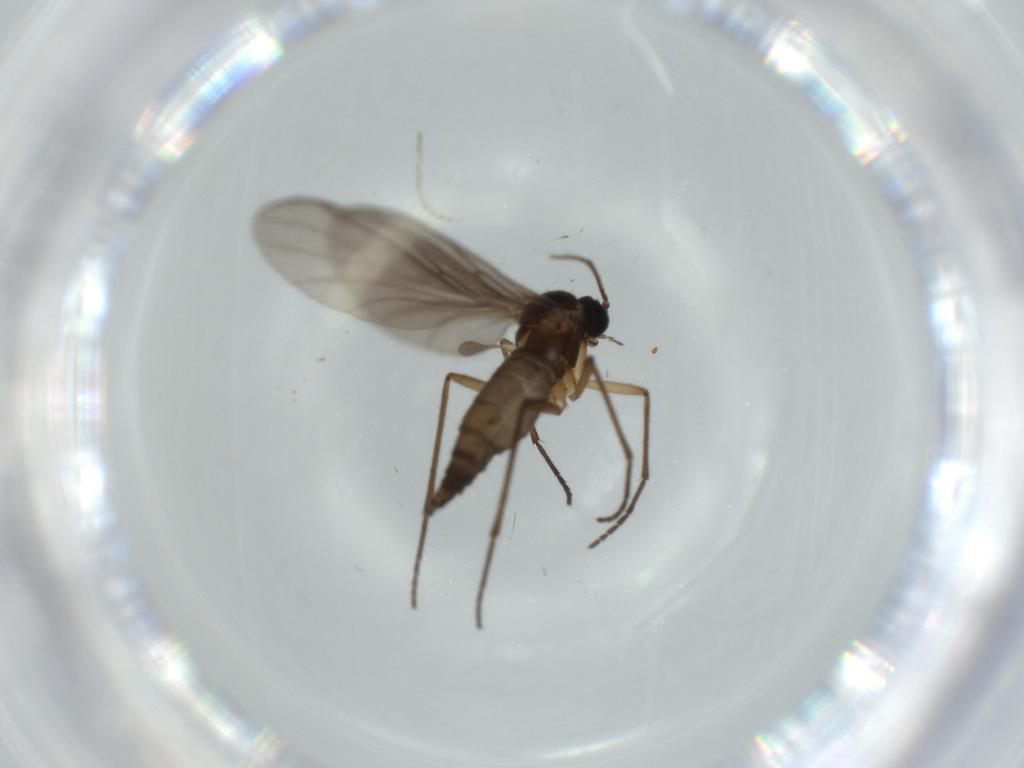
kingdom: Animalia
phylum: Arthropoda
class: Insecta
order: Diptera
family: Sciaridae
